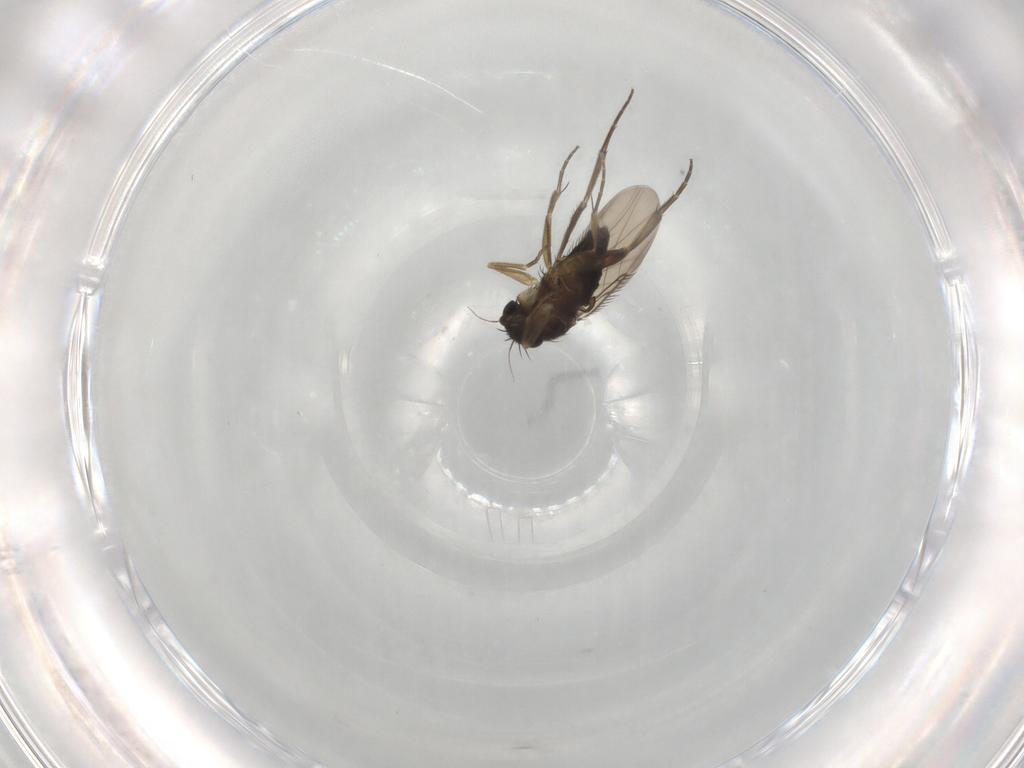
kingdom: Animalia
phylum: Arthropoda
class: Insecta
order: Diptera
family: Phoridae
